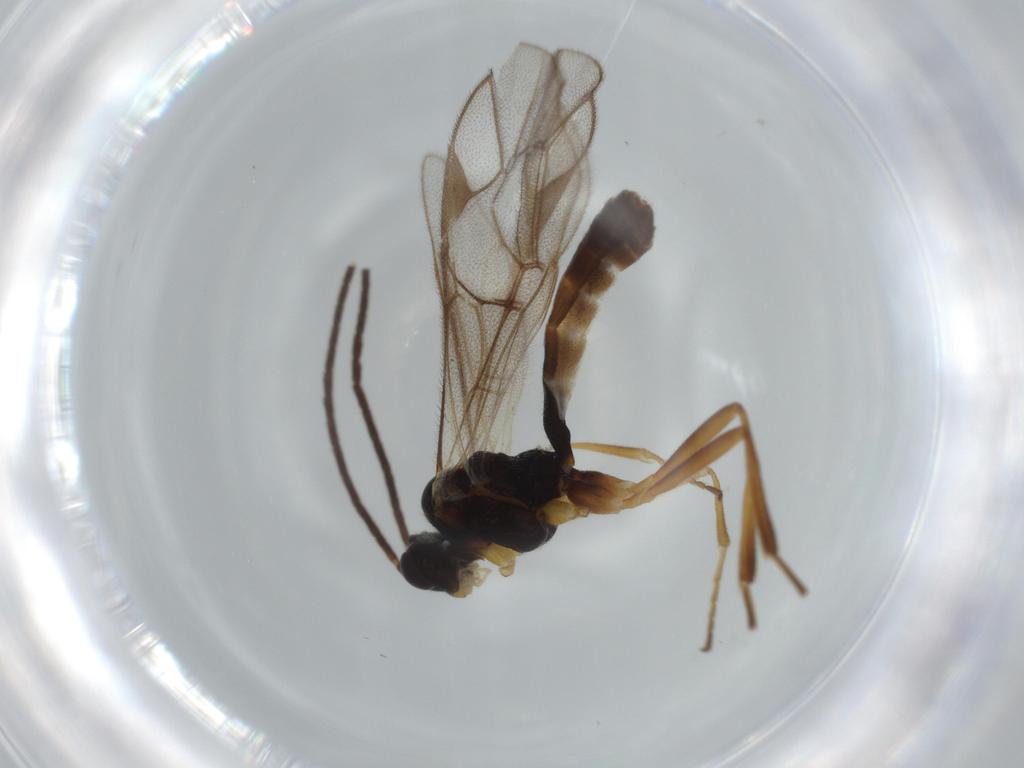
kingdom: Animalia
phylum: Arthropoda
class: Insecta
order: Hymenoptera
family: Ichneumonidae
